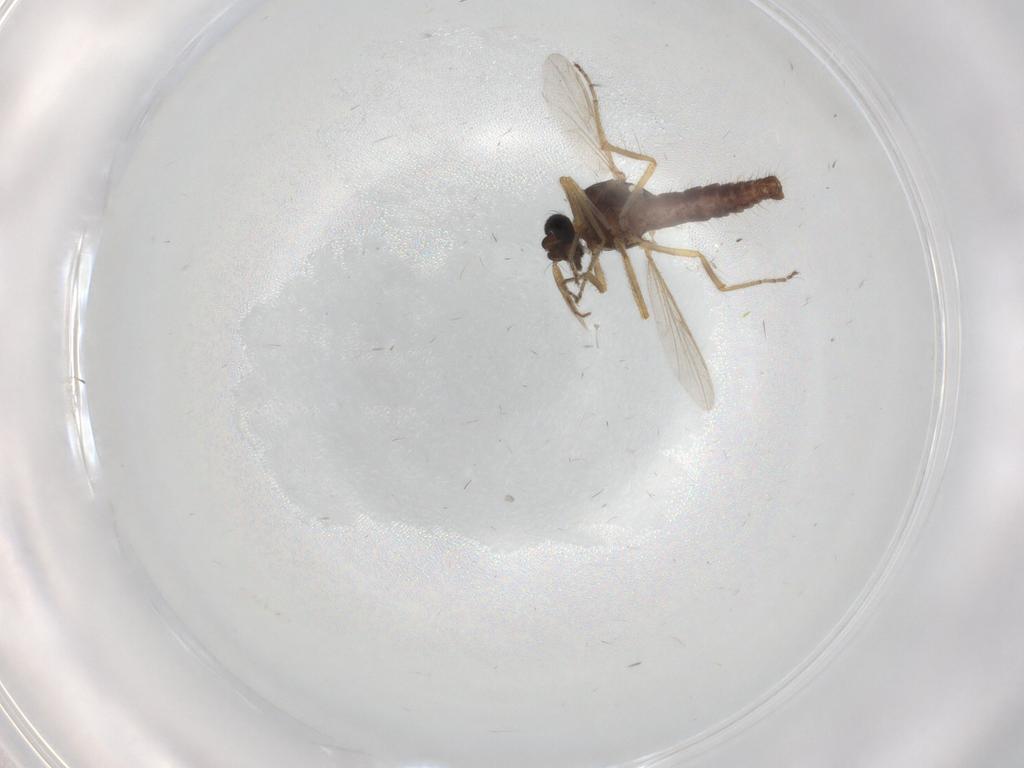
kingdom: Animalia
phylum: Arthropoda
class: Insecta
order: Diptera
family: Ceratopogonidae
